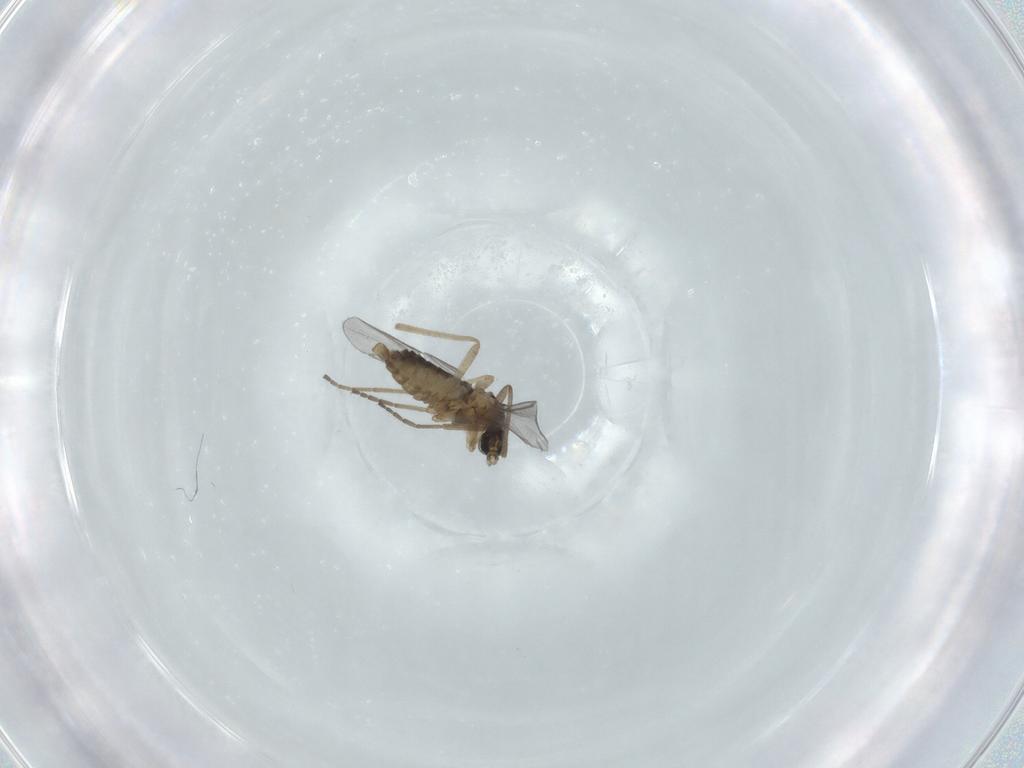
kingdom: Animalia
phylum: Arthropoda
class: Insecta
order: Diptera
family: Cecidomyiidae
